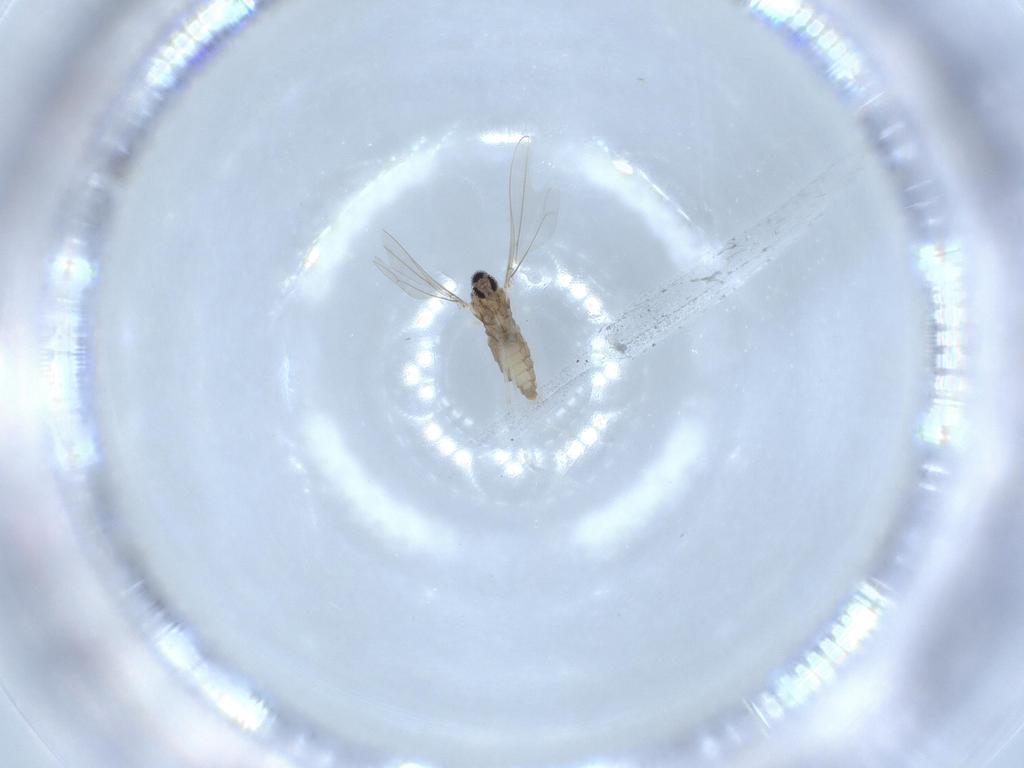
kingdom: Animalia
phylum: Arthropoda
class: Insecta
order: Diptera
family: Cecidomyiidae
